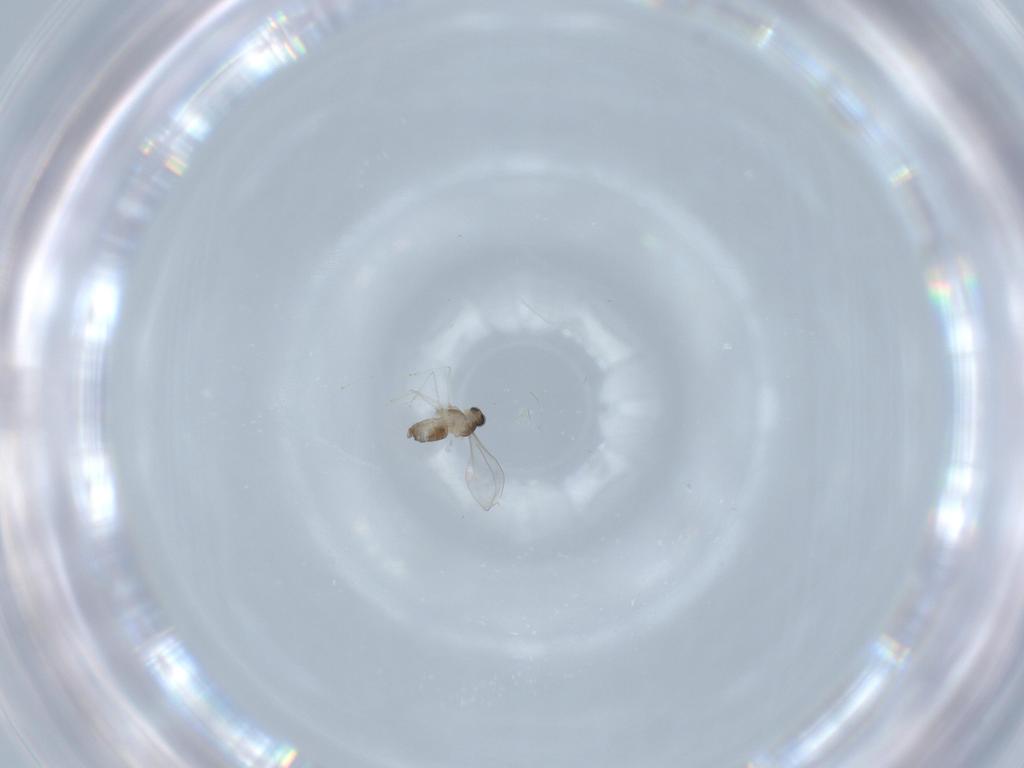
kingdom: Animalia
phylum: Arthropoda
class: Insecta
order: Diptera
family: Cecidomyiidae
